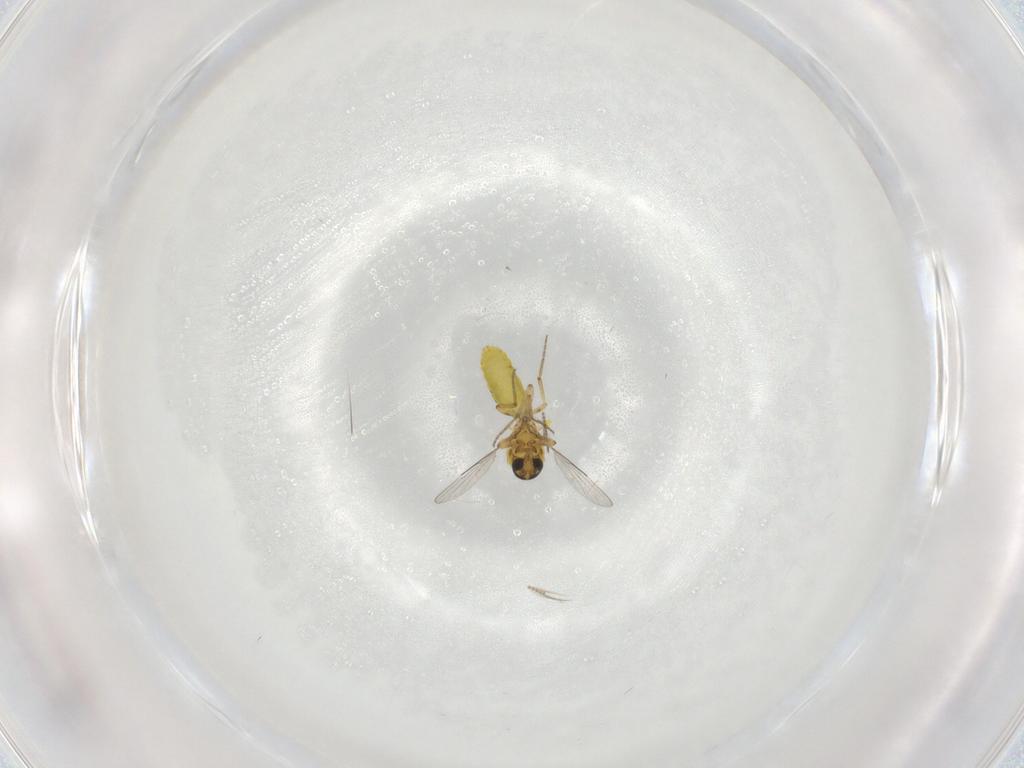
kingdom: Animalia
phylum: Arthropoda
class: Insecta
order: Diptera
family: Ceratopogonidae
